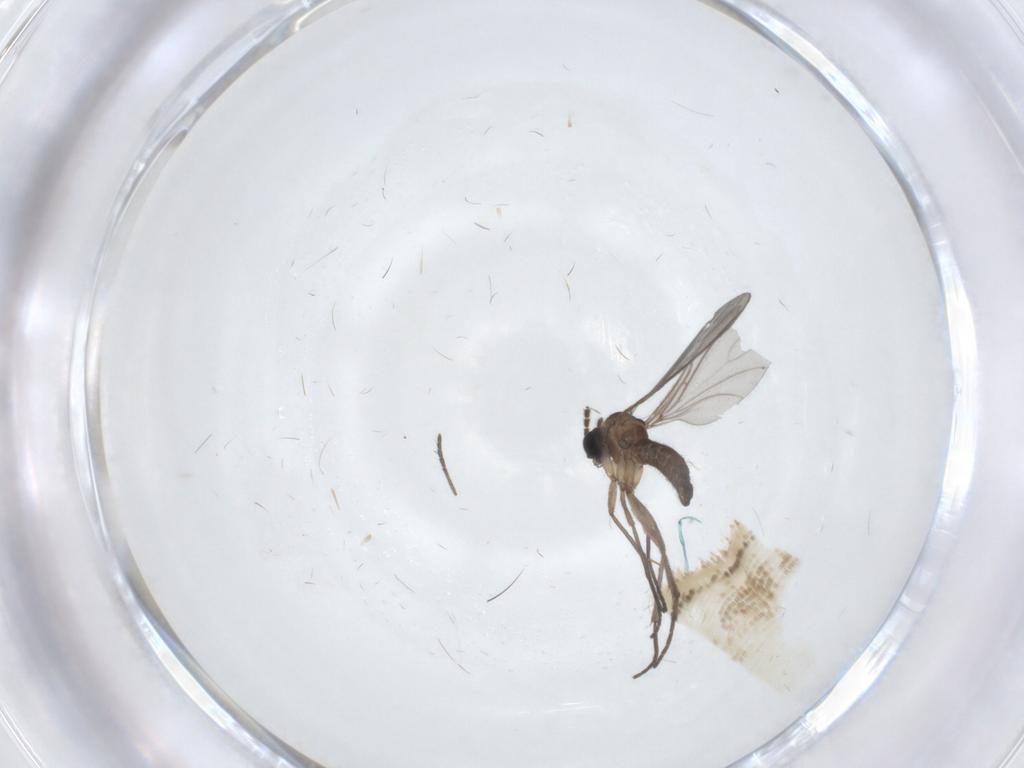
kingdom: Animalia
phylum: Arthropoda
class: Insecta
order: Diptera
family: Sciaridae
